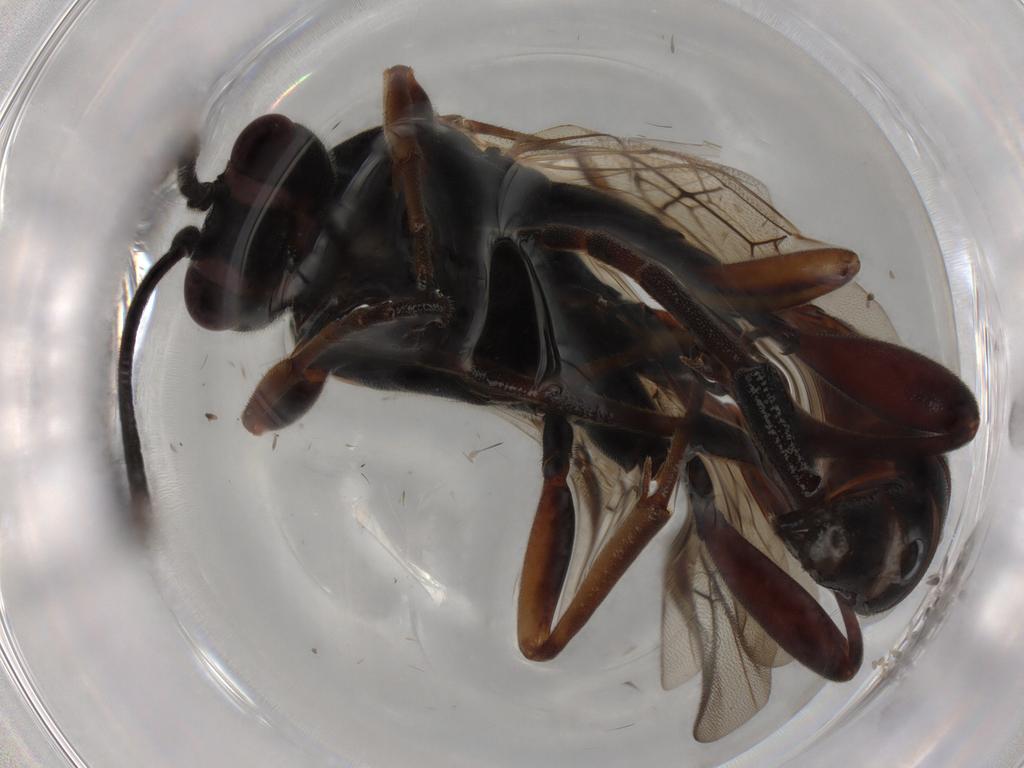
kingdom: Animalia
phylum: Arthropoda
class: Insecta
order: Hymenoptera
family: Ichneumonidae
